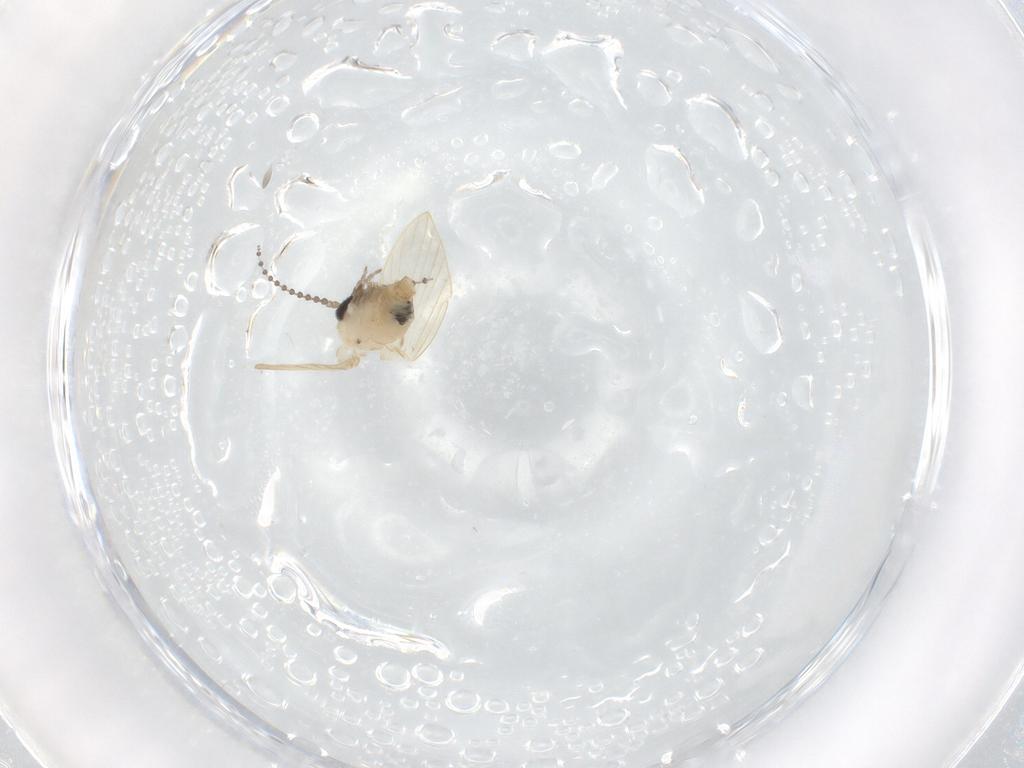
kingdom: Animalia
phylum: Arthropoda
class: Insecta
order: Diptera
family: Psychodidae
